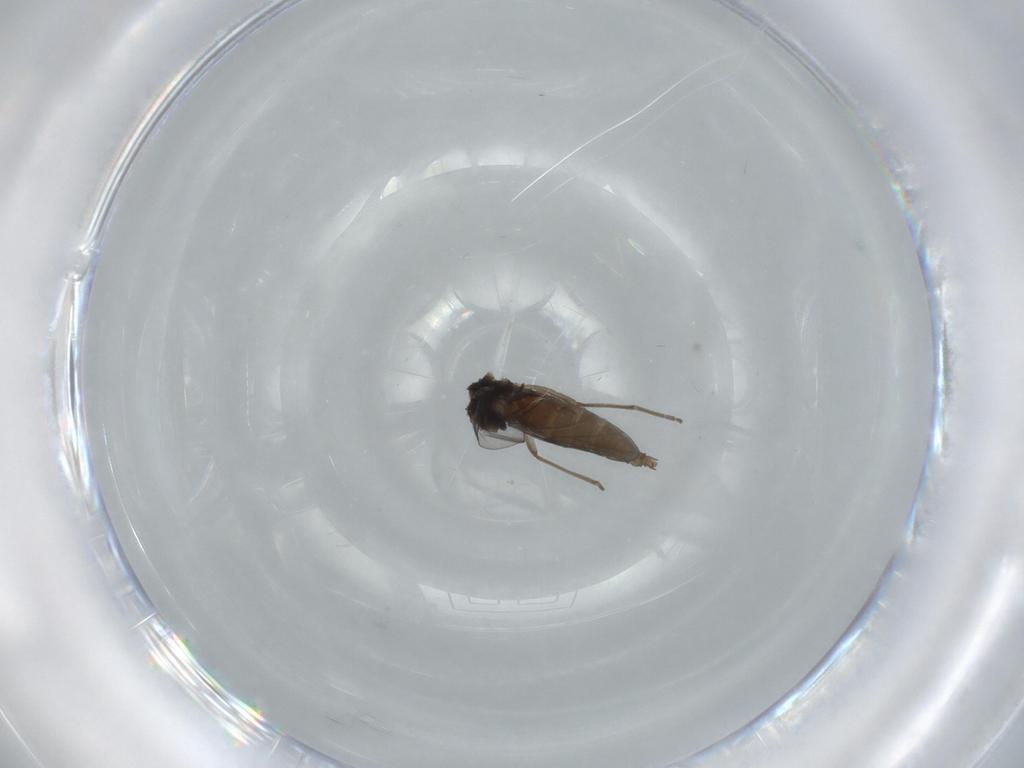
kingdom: Animalia
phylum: Arthropoda
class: Insecta
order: Diptera
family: Cecidomyiidae
